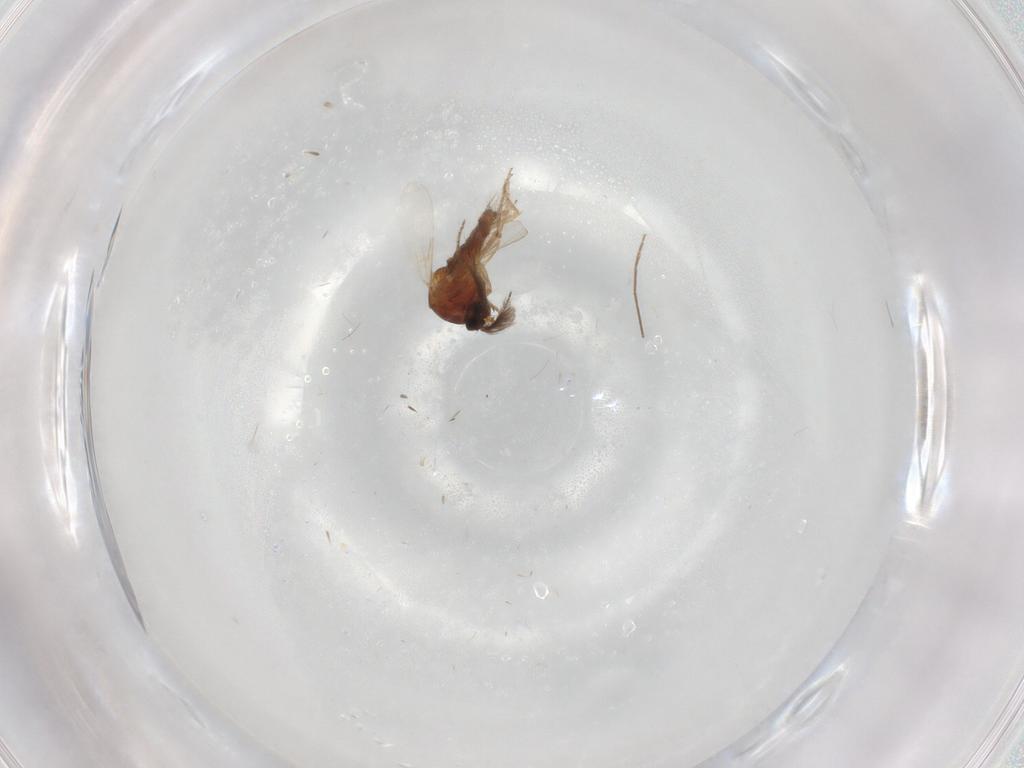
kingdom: Animalia
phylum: Arthropoda
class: Insecta
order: Diptera
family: Ceratopogonidae
